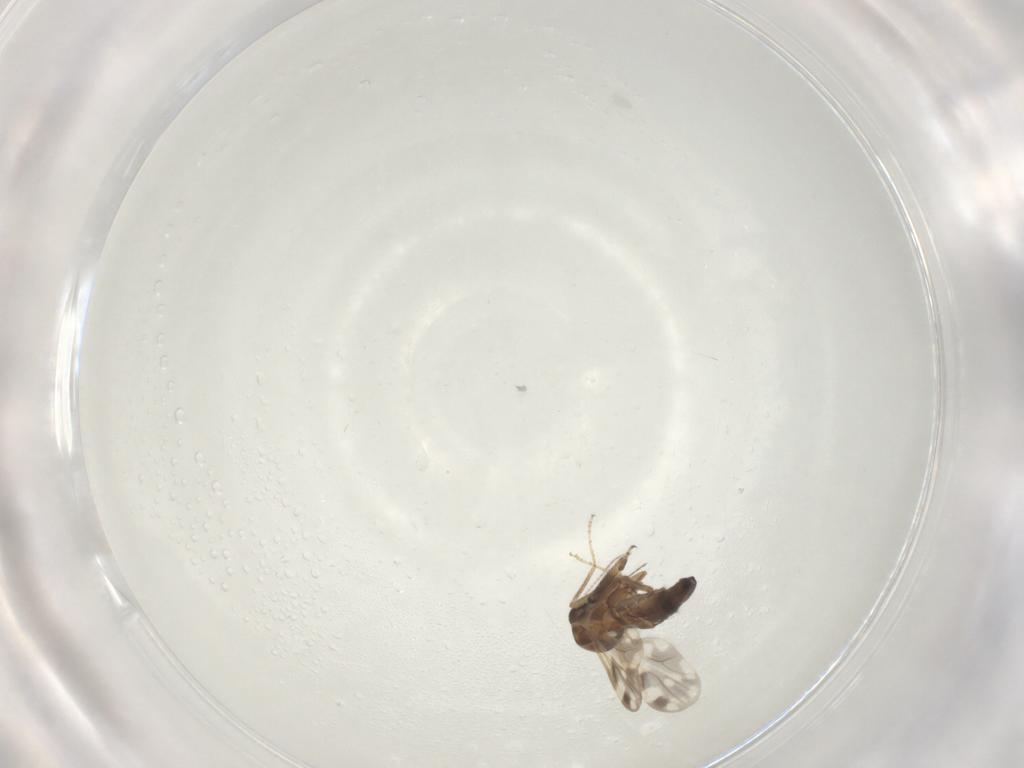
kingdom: Animalia
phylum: Arthropoda
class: Insecta
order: Diptera
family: Ceratopogonidae
